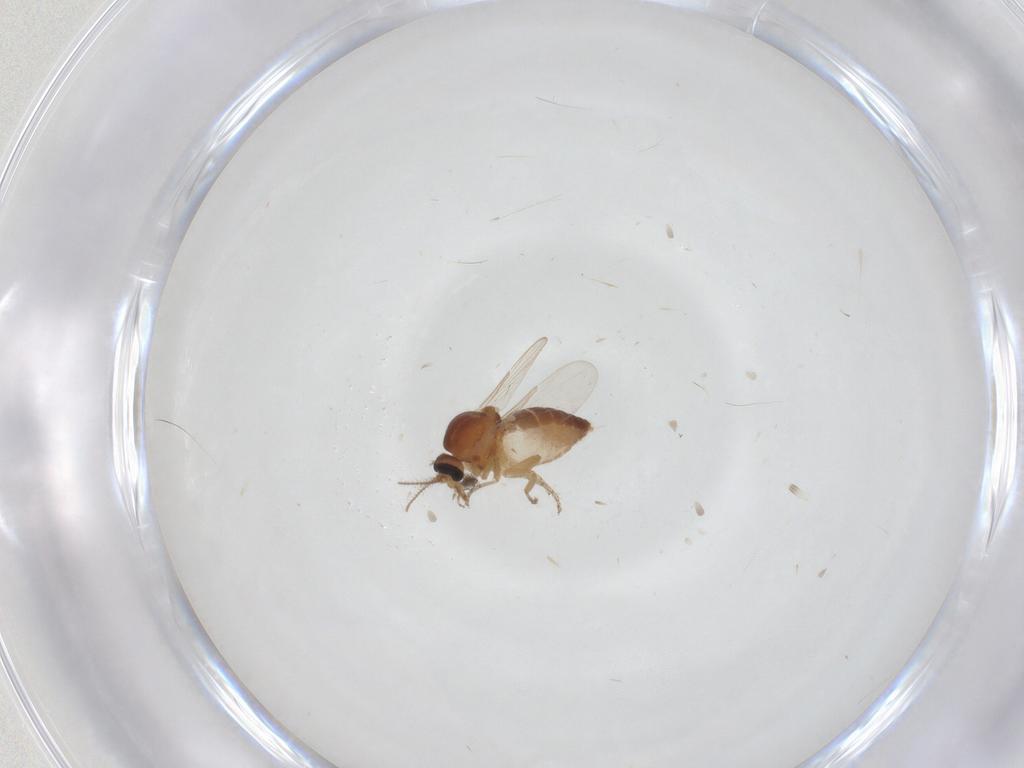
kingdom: Animalia
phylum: Arthropoda
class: Insecta
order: Diptera
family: Ceratopogonidae
